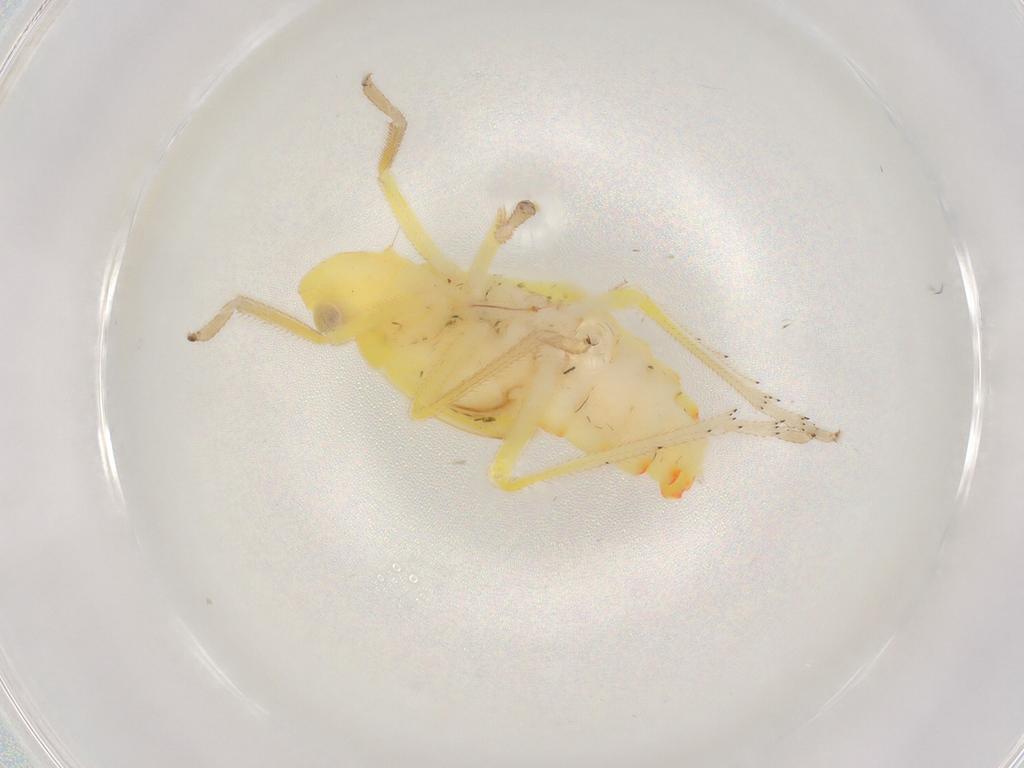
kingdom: Animalia
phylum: Arthropoda
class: Insecta
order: Hemiptera
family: Tropiduchidae
